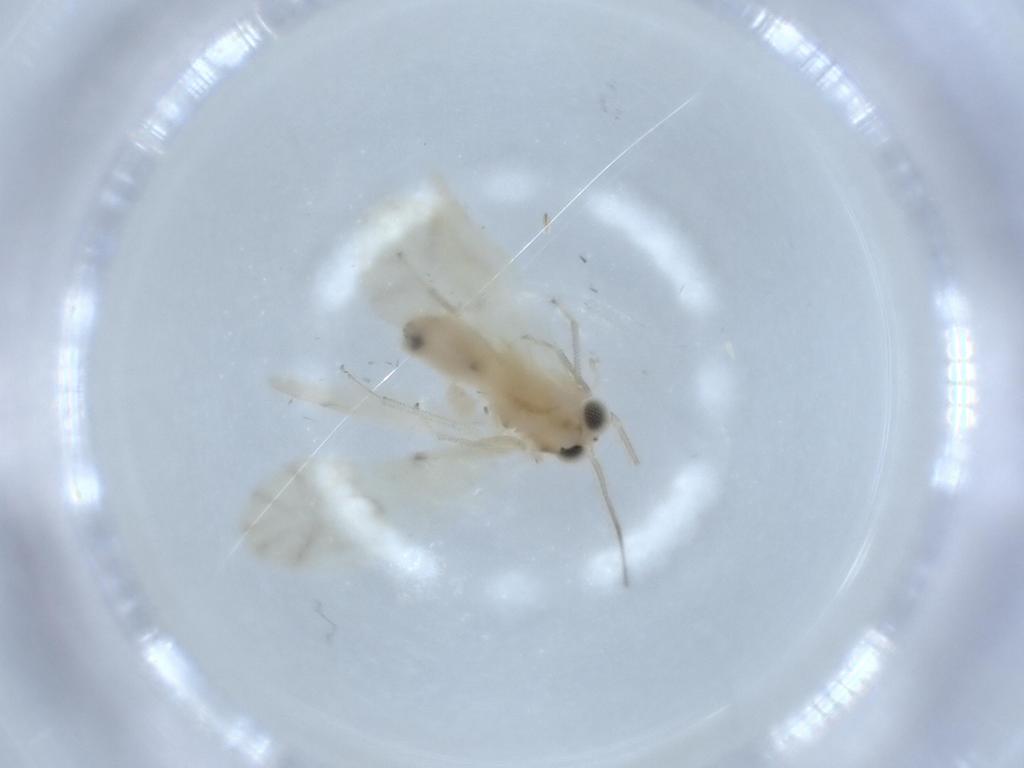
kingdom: Animalia
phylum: Arthropoda
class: Insecta
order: Psocodea
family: Caeciliusidae
